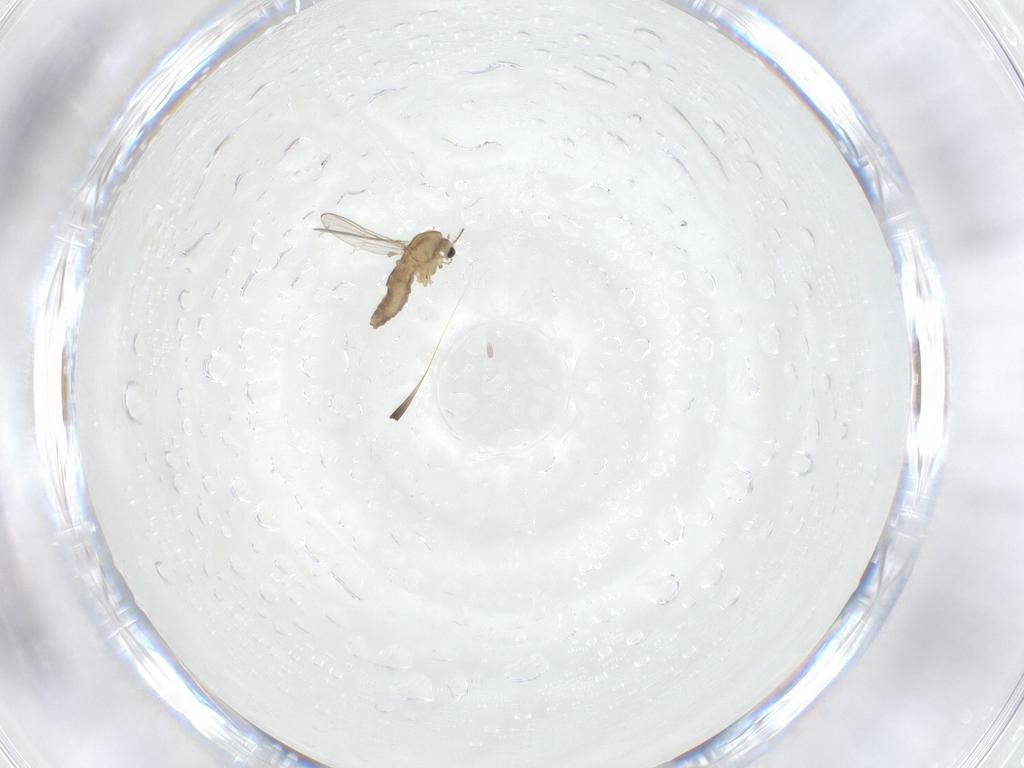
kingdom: Animalia
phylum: Arthropoda
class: Insecta
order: Diptera
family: Chironomidae
